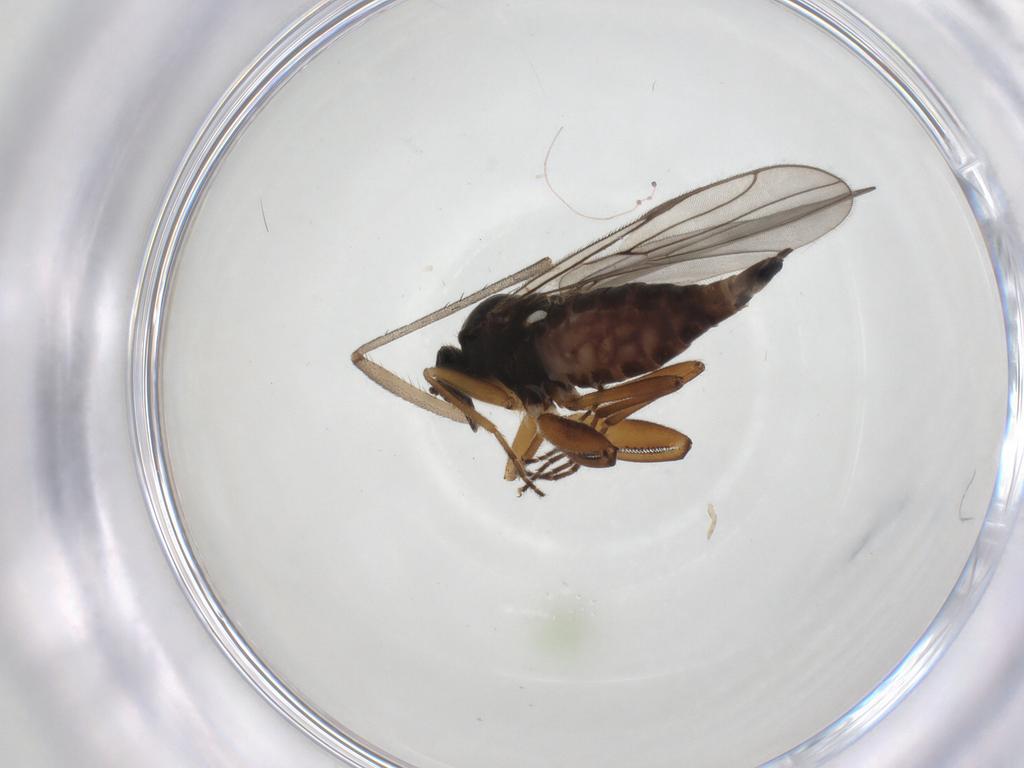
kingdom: Animalia
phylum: Arthropoda
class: Insecta
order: Diptera
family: Hybotidae
